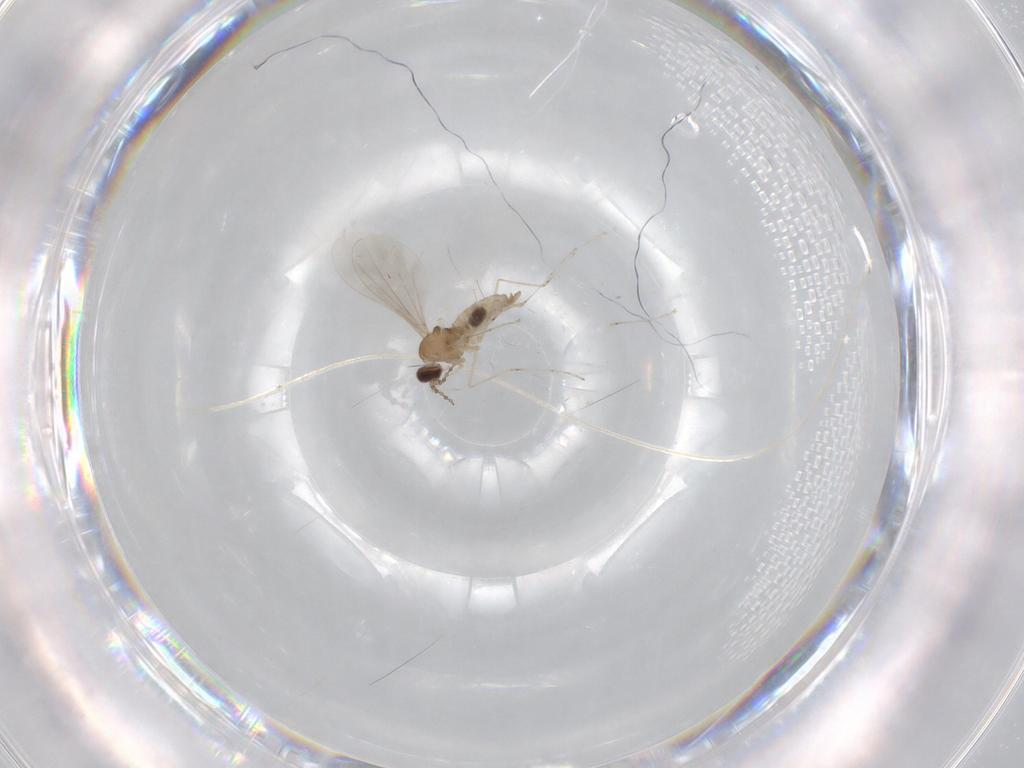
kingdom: Animalia
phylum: Arthropoda
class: Insecta
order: Diptera
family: Cecidomyiidae
